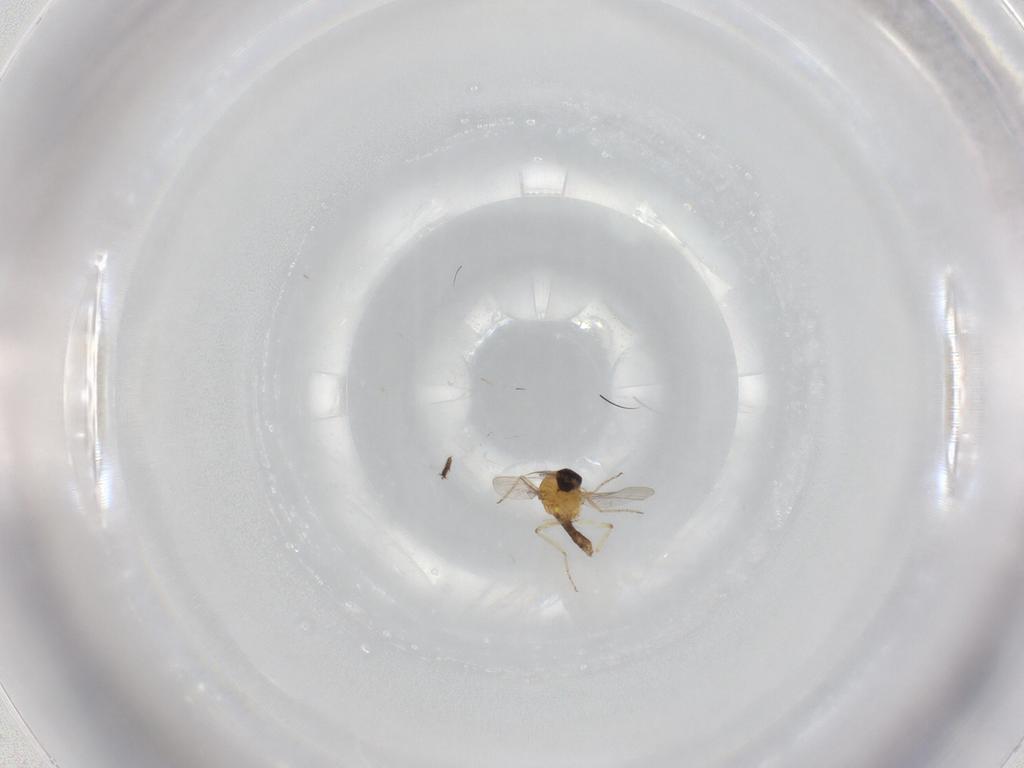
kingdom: Animalia
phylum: Arthropoda
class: Insecta
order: Diptera
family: Ceratopogonidae
